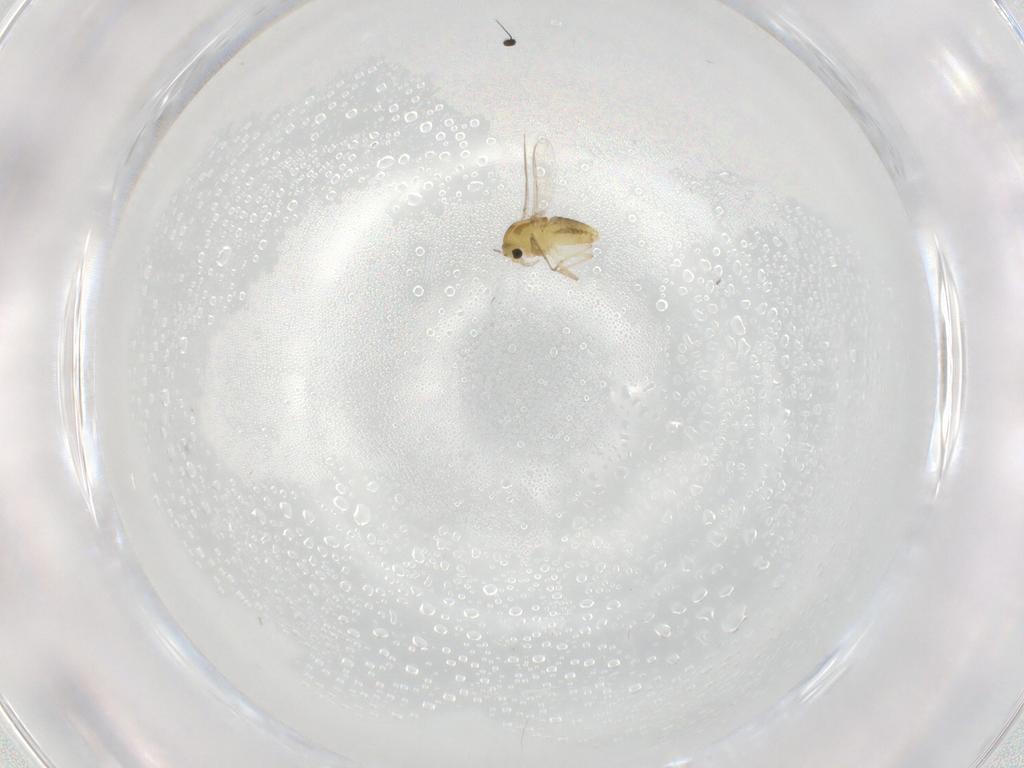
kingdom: Animalia
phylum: Arthropoda
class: Insecta
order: Diptera
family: Chironomidae
